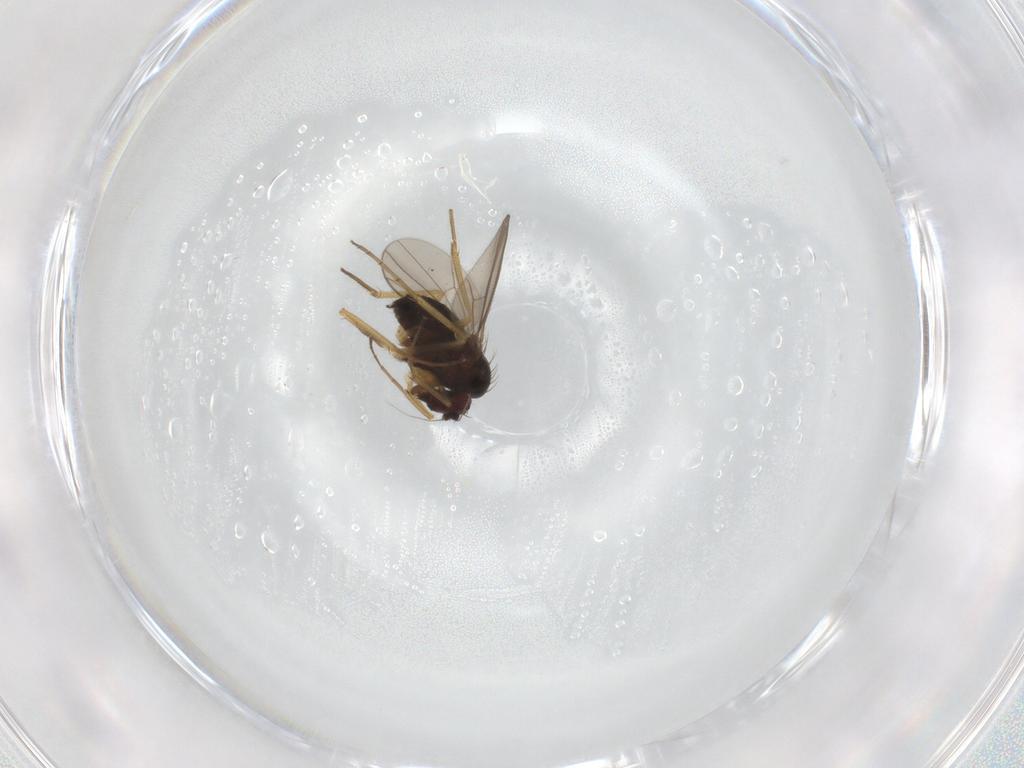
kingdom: Animalia
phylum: Arthropoda
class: Insecta
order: Diptera
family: Dolichopodidae
